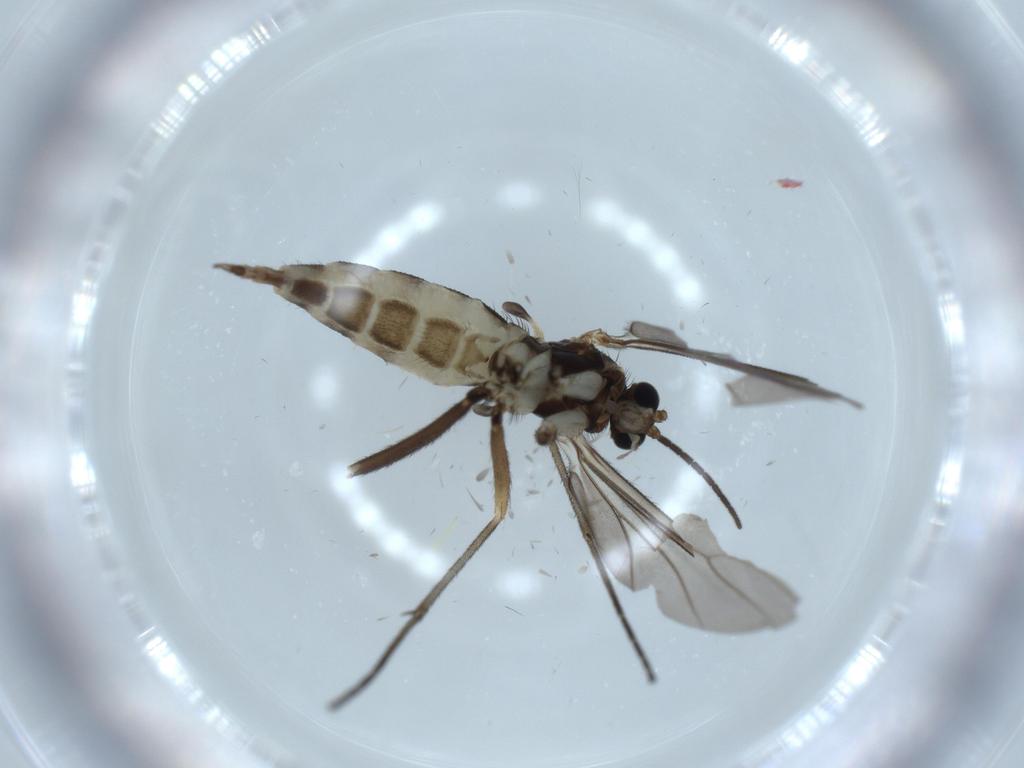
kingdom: Animalia
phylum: Arthropoda
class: Insecta
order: Diptera
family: Sciaridae
